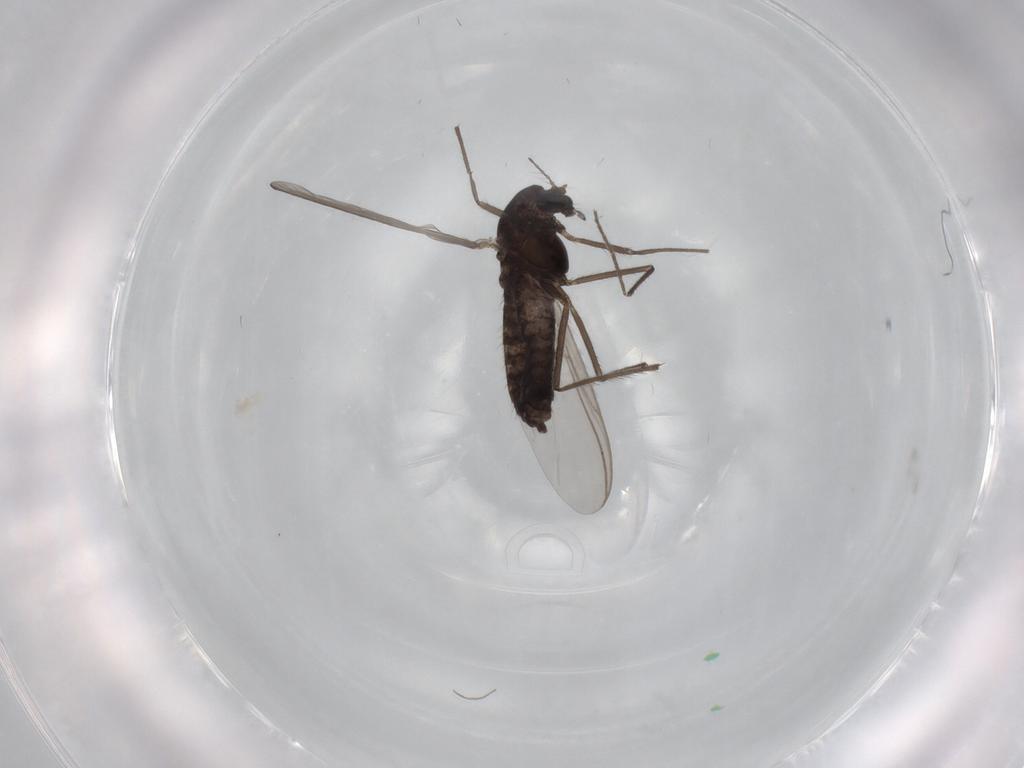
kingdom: Animalia
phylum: Arthropoda
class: Insecta
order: Diptera
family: Chironomidae
